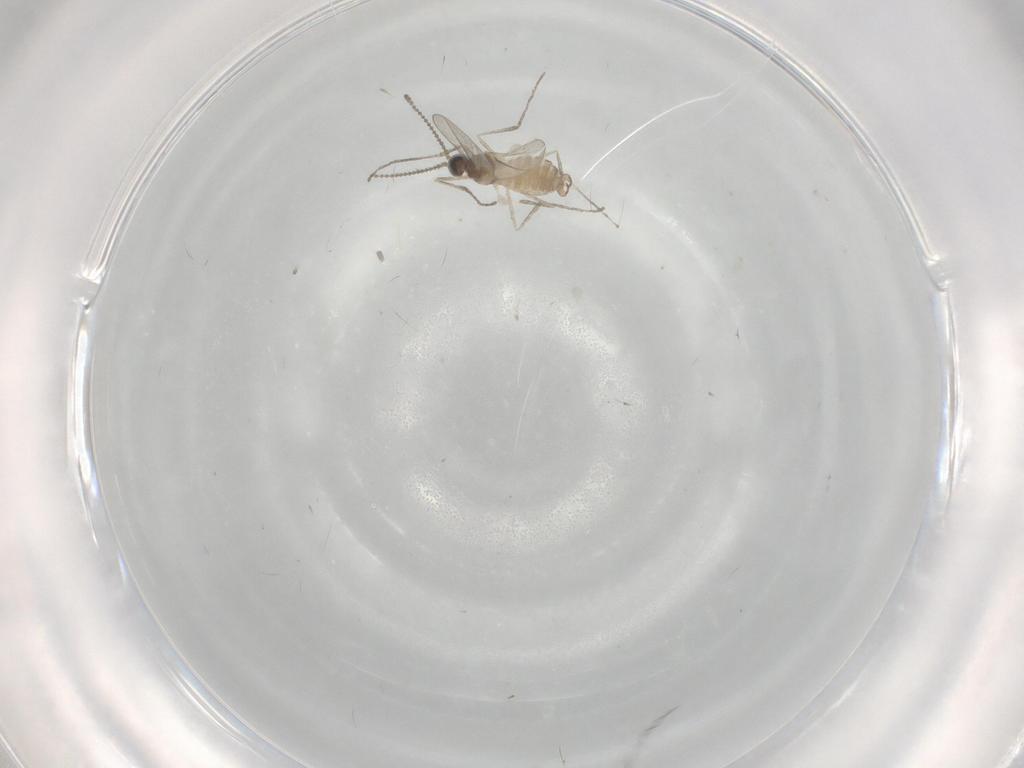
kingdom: Animalia
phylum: Arthropoda
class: Insecta
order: Diptera
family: Cecidomyiidae
